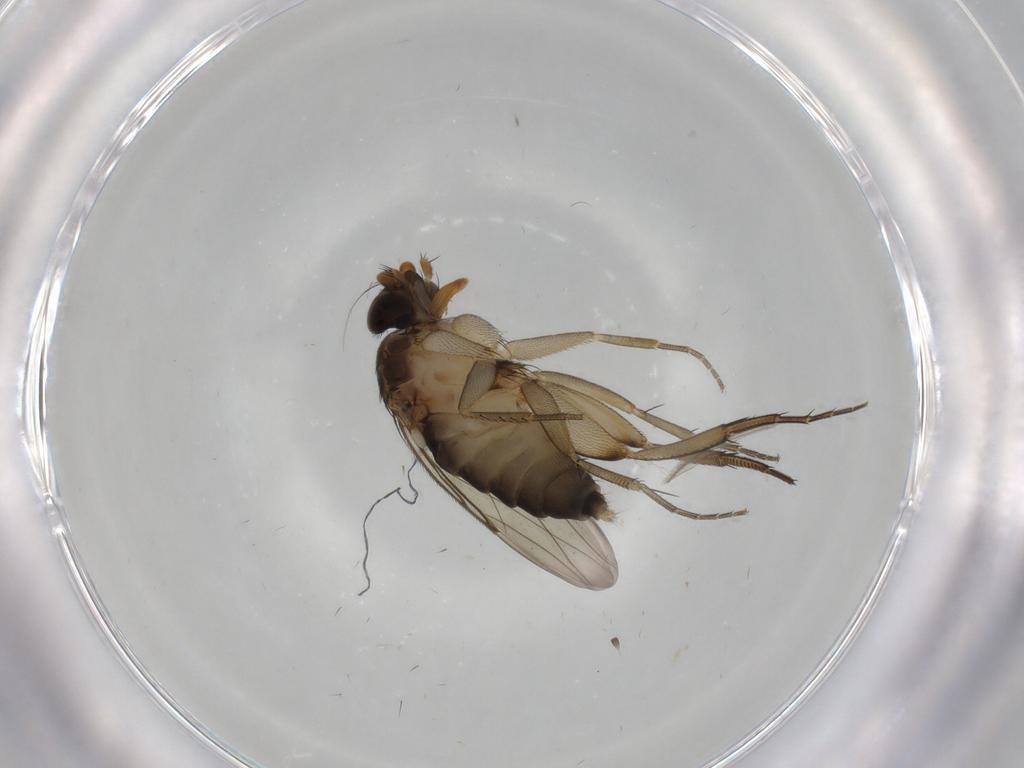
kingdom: Animalia
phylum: Arthropoda
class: Insecta
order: Diptera
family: Phoridae
